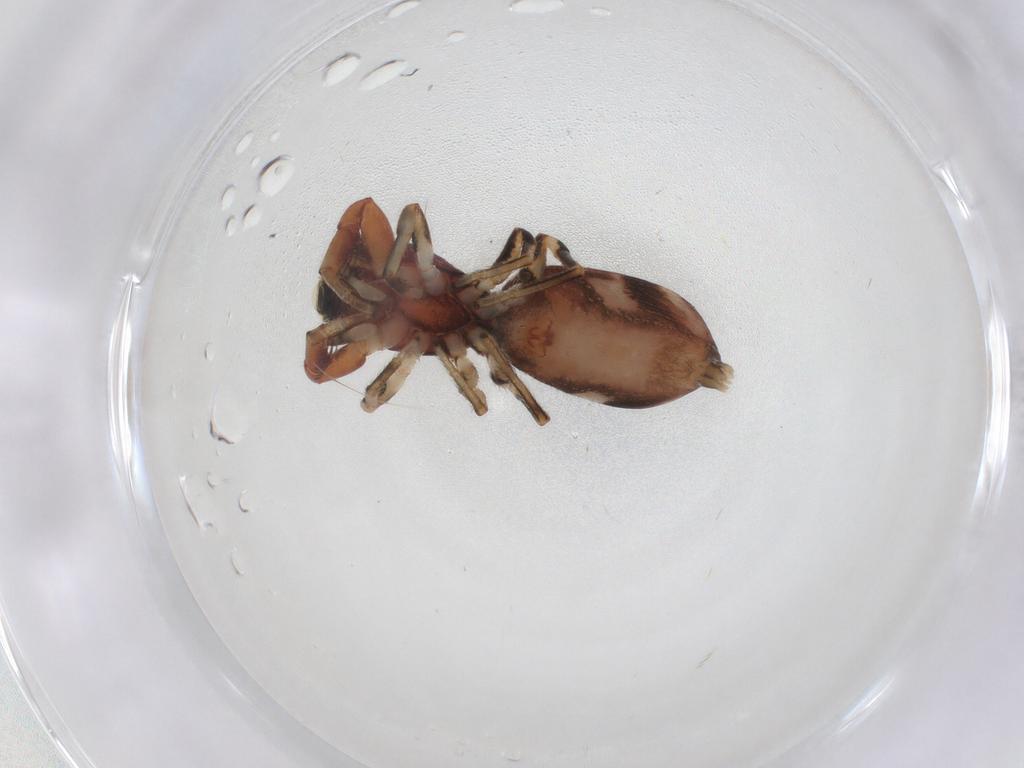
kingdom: Animalia
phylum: Arthropoda
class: Arachnida
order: Araneae
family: Salticidae
